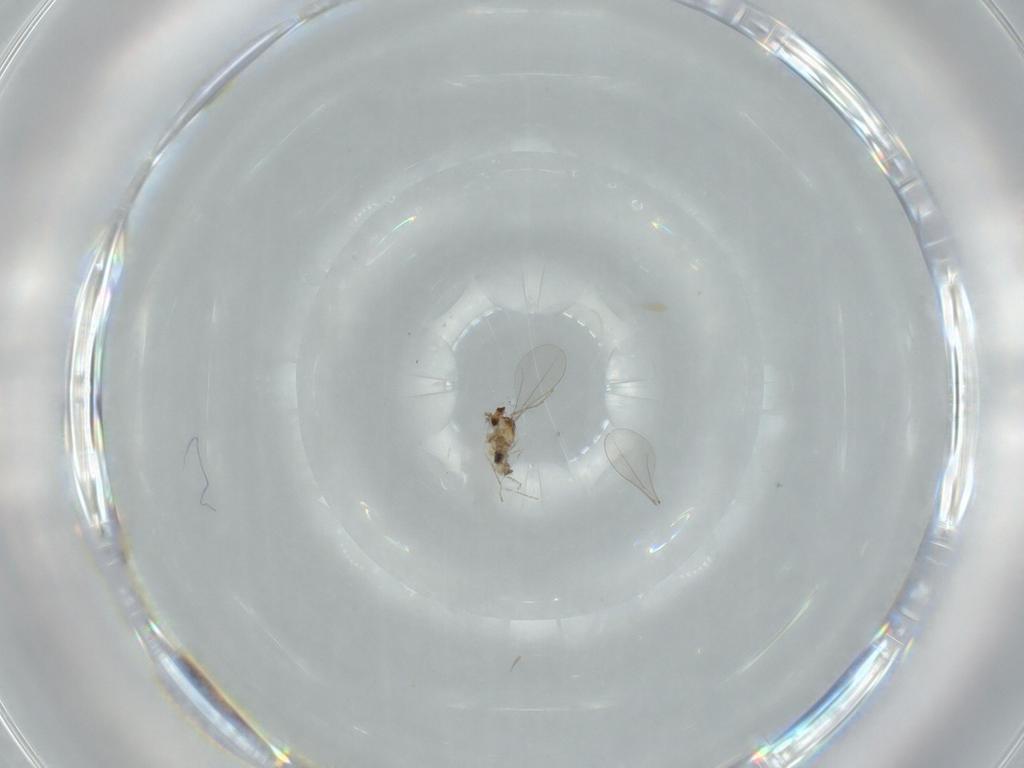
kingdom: Animalia
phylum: Arthropoda
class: Insecta
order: Diptera
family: Cecidomyiidae
